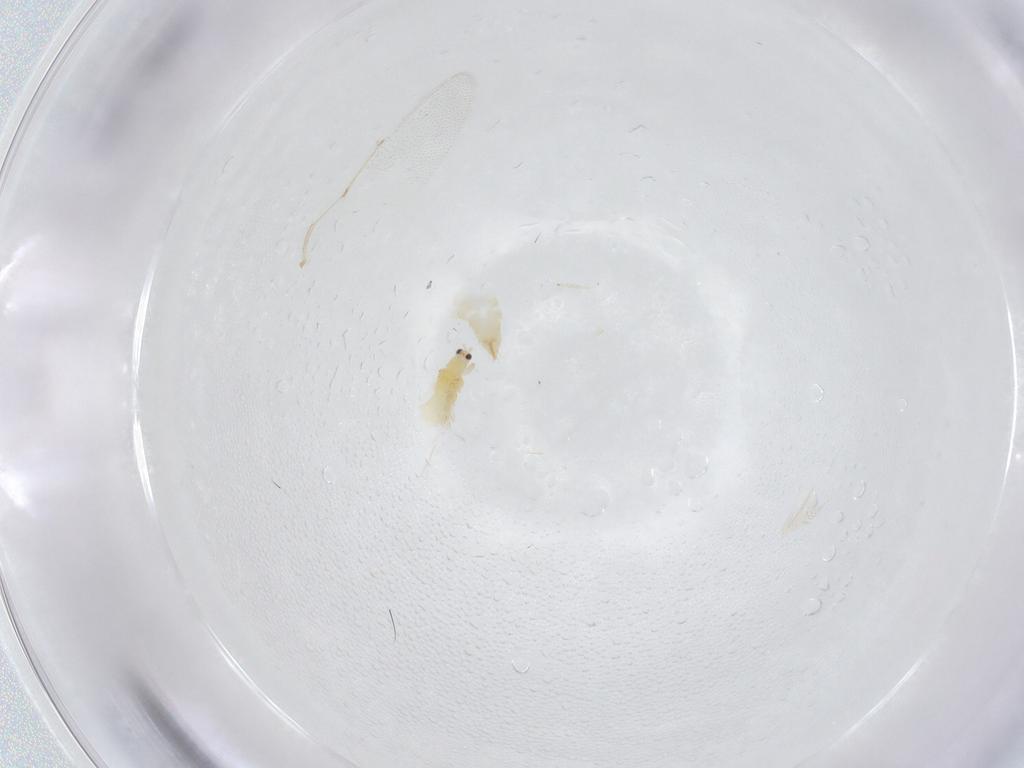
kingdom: Animalia
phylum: Arthropoda
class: Insecta
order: Thysanoptera
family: Thripidae
